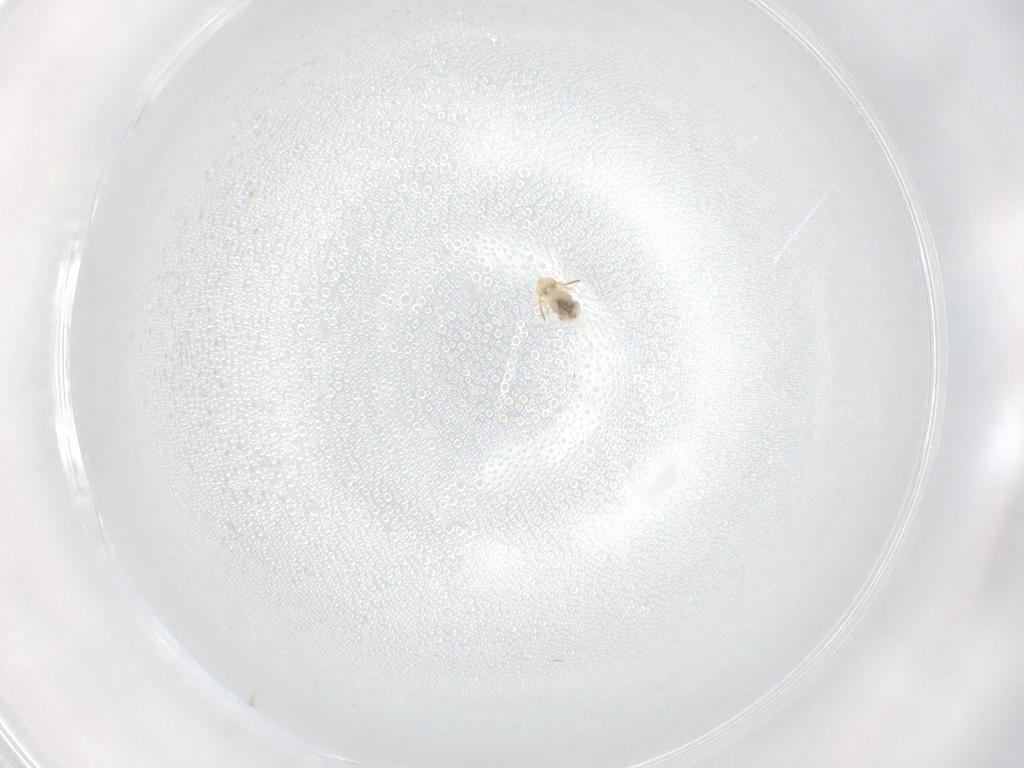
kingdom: Animalia
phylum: Arthropoda
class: Collembola
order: Symphypleona
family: Bourletiellidae
